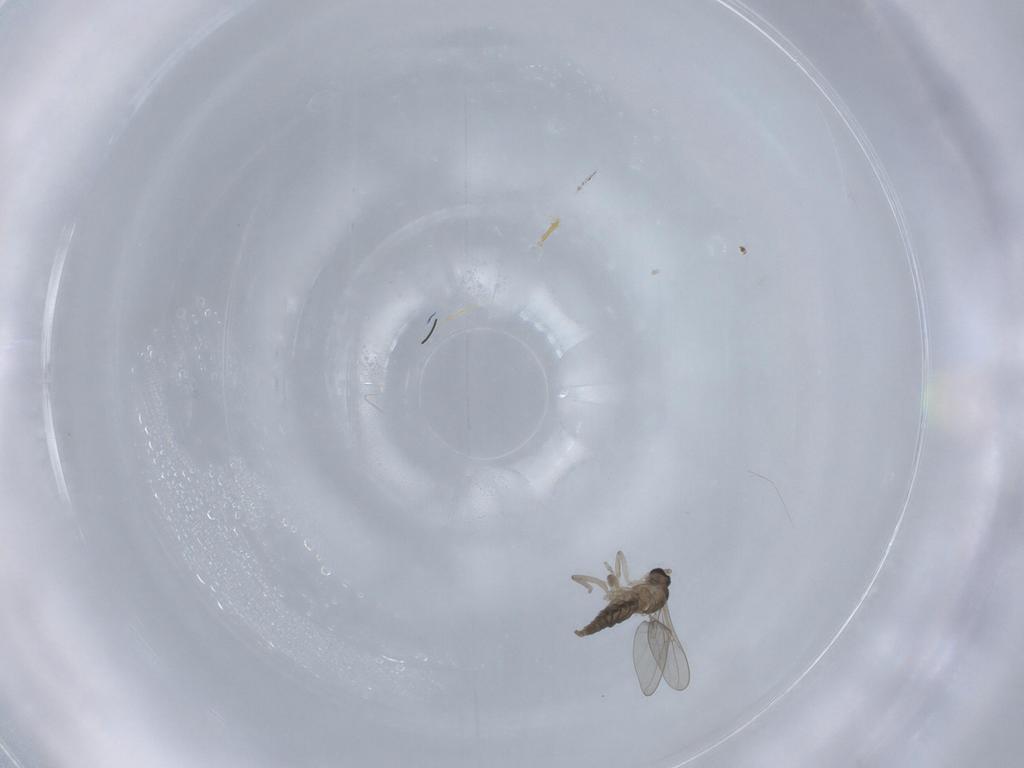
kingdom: Animalia
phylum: Arthropoda
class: Insecta
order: Diptera
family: Cecidomyiidae
